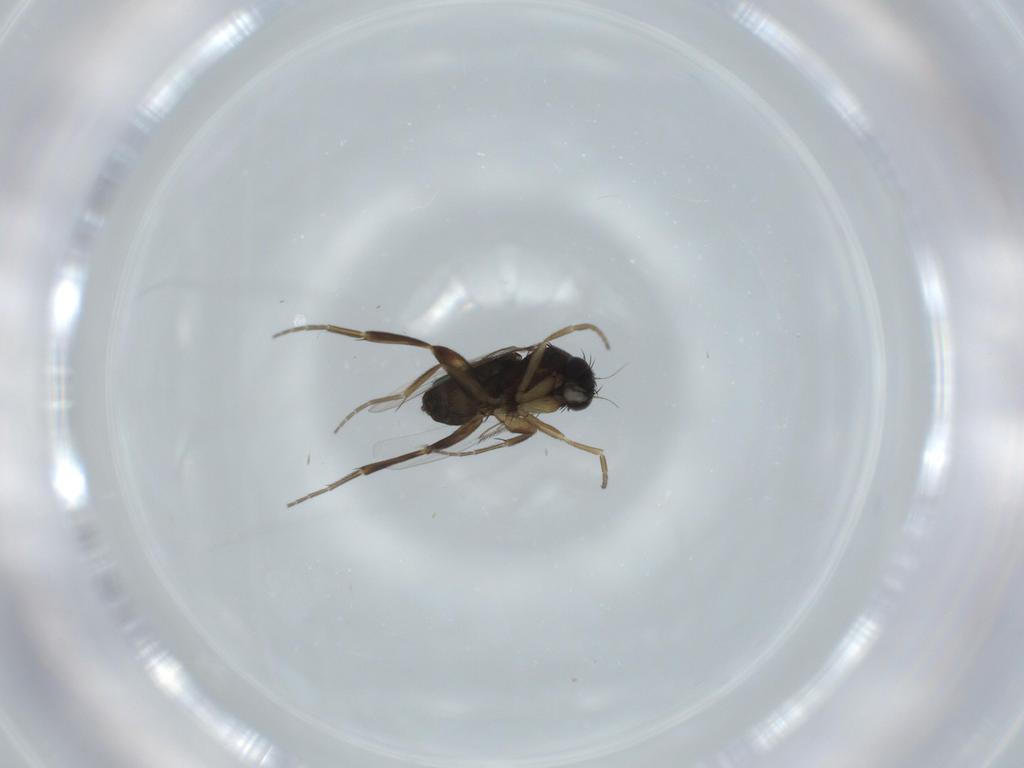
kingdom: Animalia
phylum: Arthropoda
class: Insecta
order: Diptera
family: Phoridae
